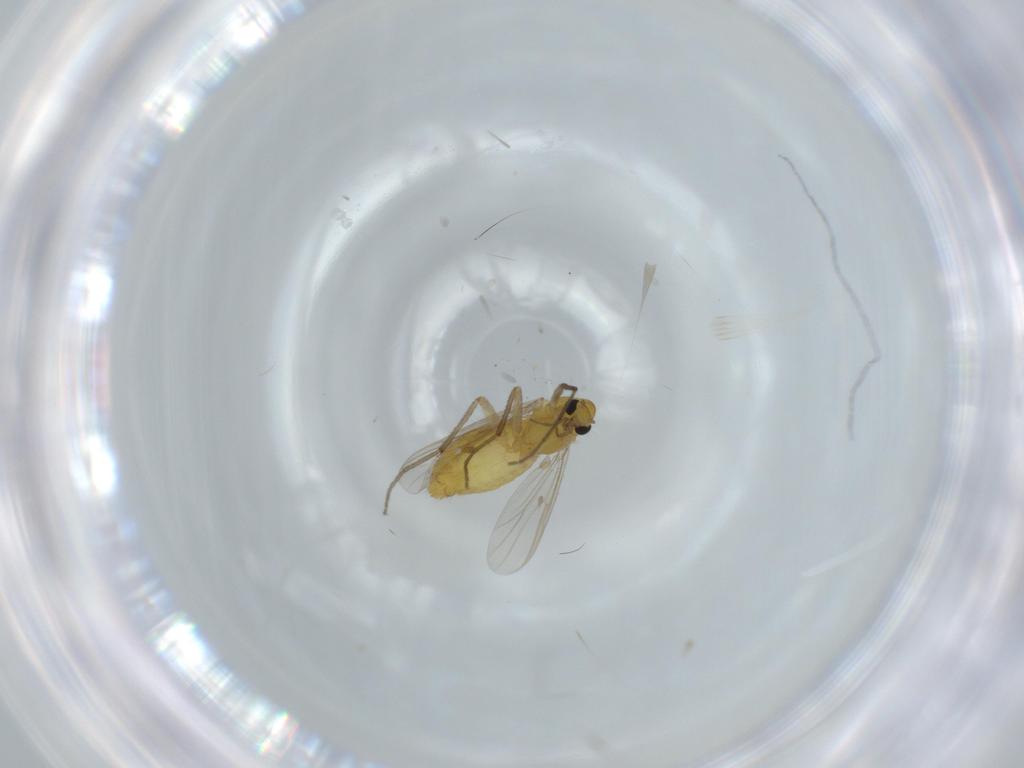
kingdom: Animalia
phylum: Arthropoda
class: Insecta
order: Diptera
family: Chironomidae
